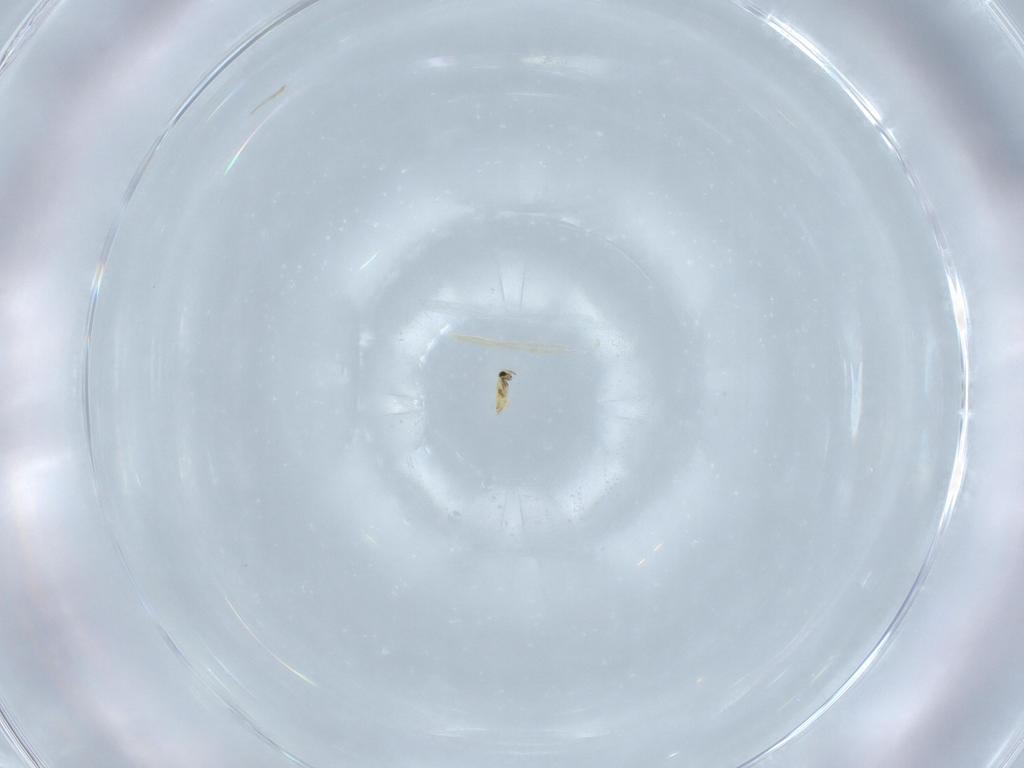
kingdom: Animalia
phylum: Arthropoda
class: Insecta
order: Hymenoptera
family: Trichogrammatidae
